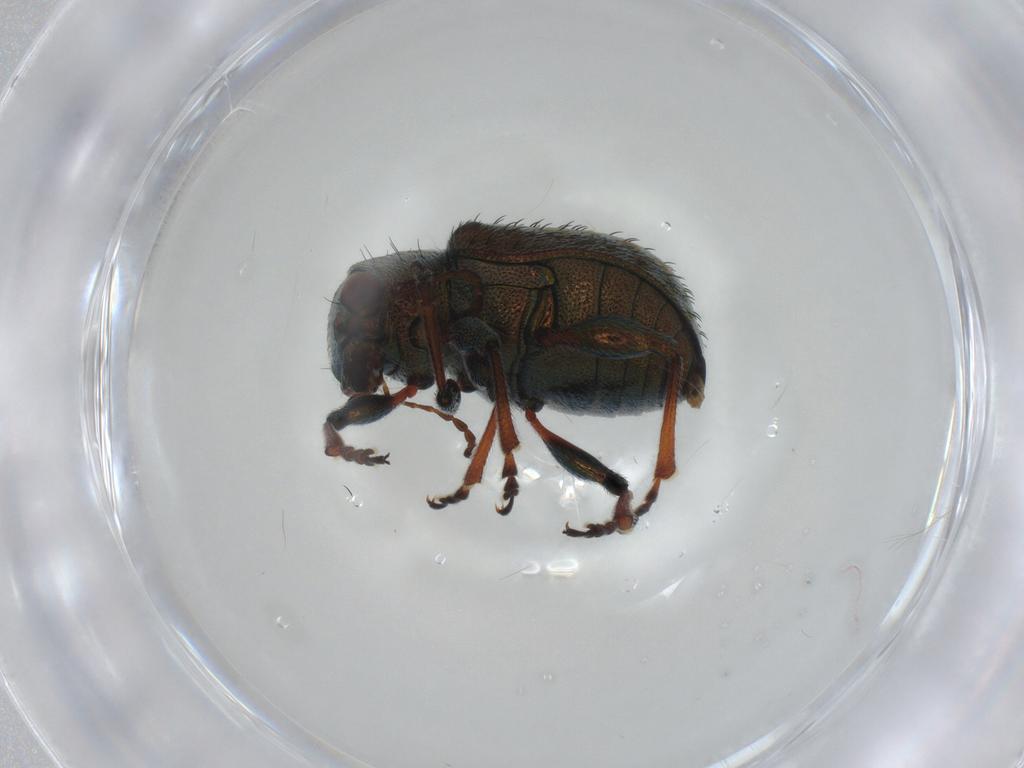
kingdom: Animalia
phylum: Arthropoda
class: Insecta
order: Coleoptera
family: Chrysomelidae
